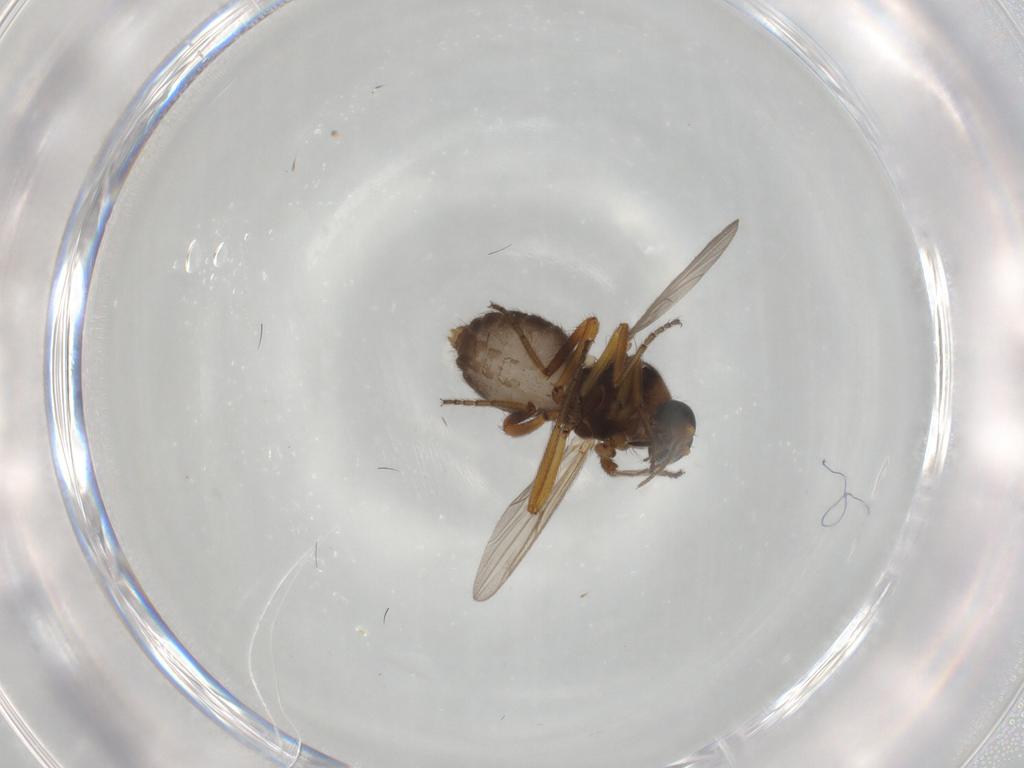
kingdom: Animalia
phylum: Arthropoda
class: Insecta
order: Diptera
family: Ceratopogonidae
